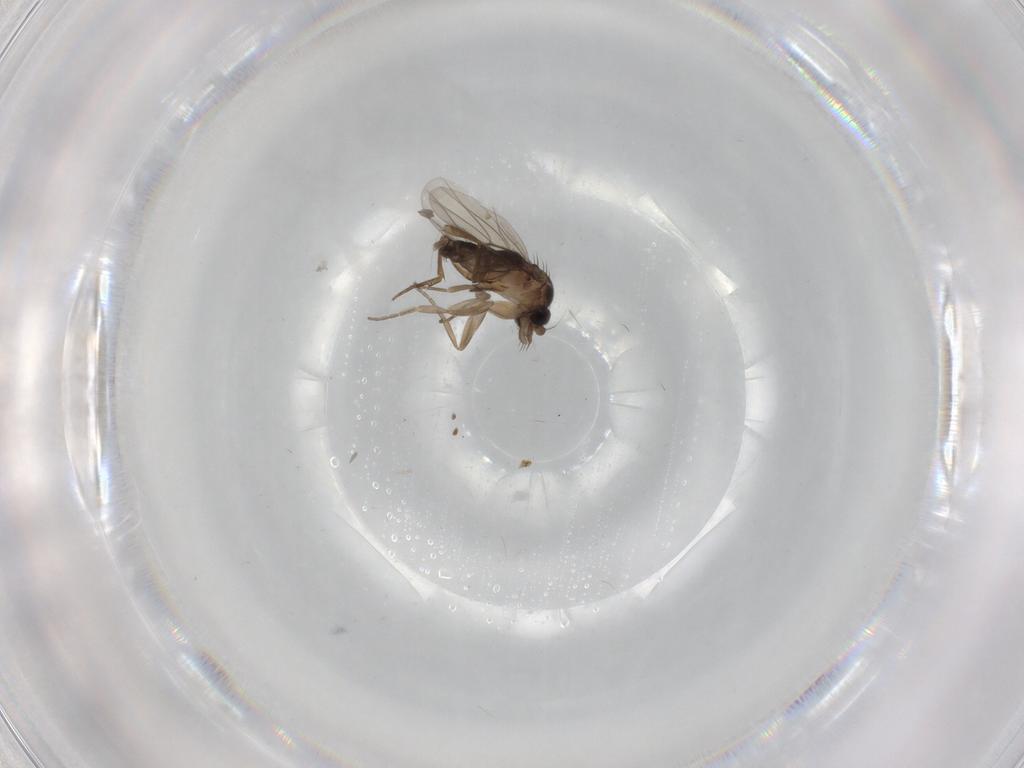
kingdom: Animalia
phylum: Arthropoda
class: Insecta
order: Diptera
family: Phoridae
